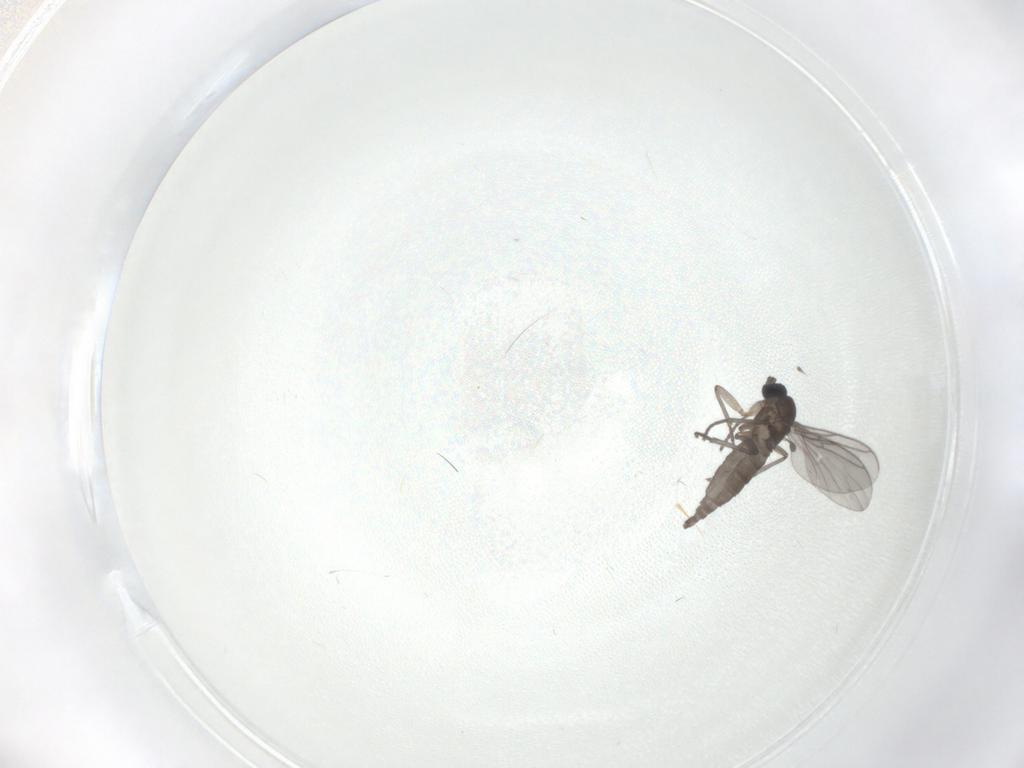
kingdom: Animalia
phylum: Arthropoda
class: Insecta
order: Diptera
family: Sciaridae
